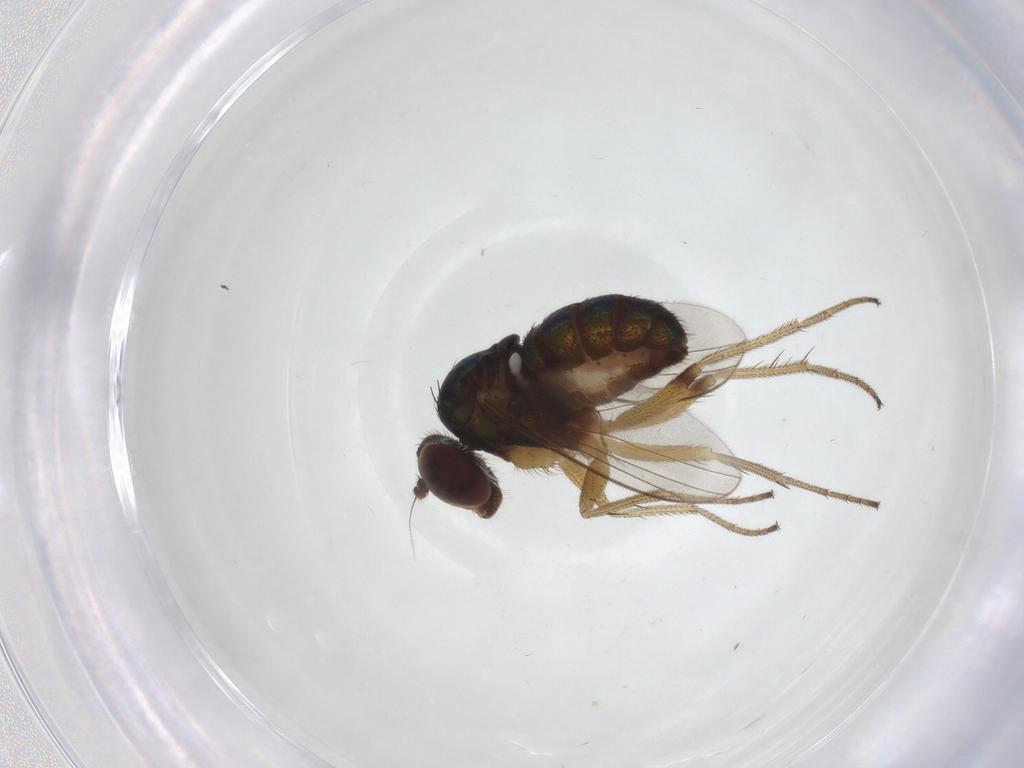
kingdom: Animalia
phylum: Arthropoda
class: Insecta
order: Diptera
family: Dolichopodidae
